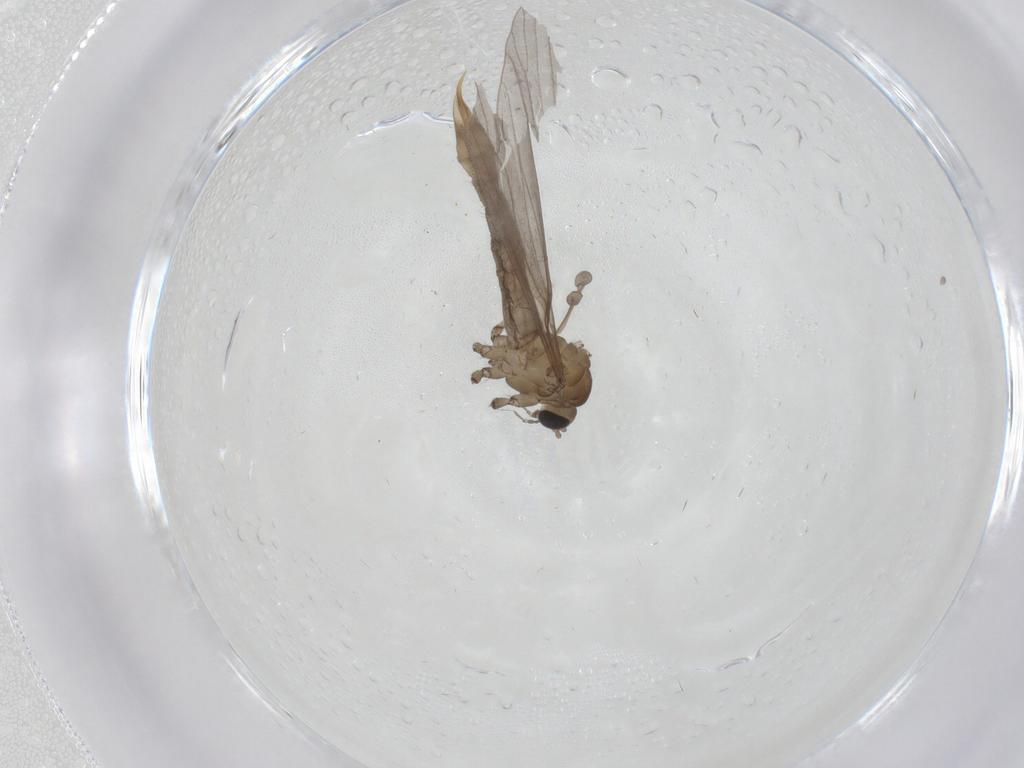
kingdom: Animalia
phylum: Arthropoda
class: Insecta
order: Diptera
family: Limoniidae
